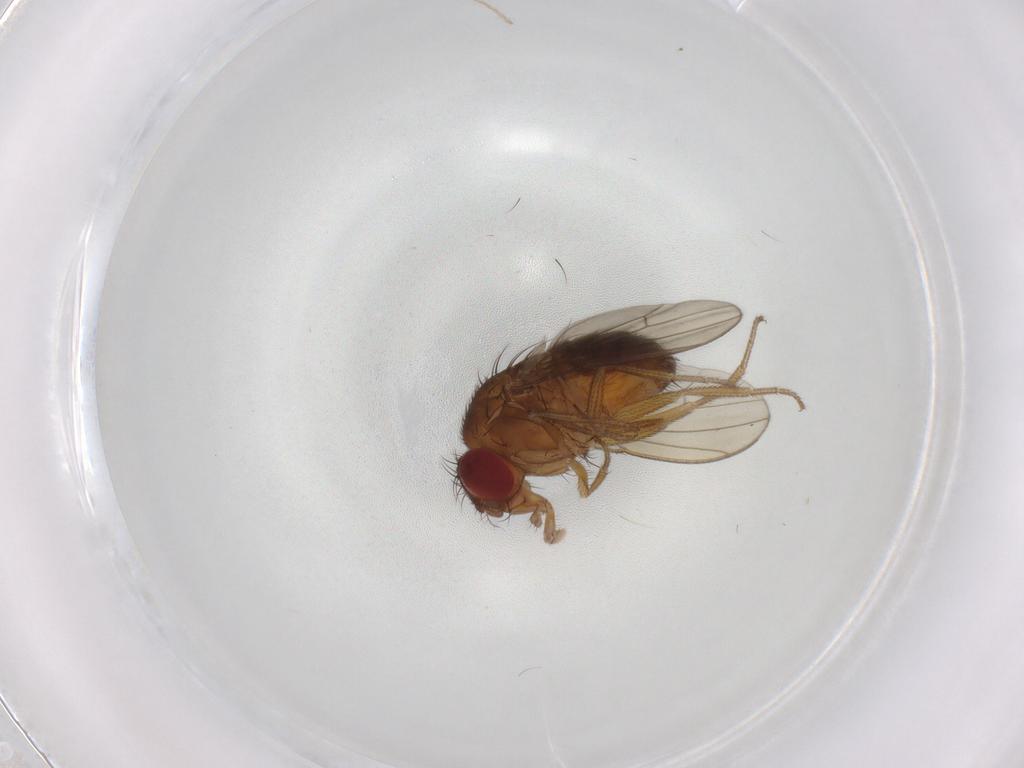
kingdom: Animalia
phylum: Arthropoda
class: Insecta
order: Diptera
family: Drosophilidae
